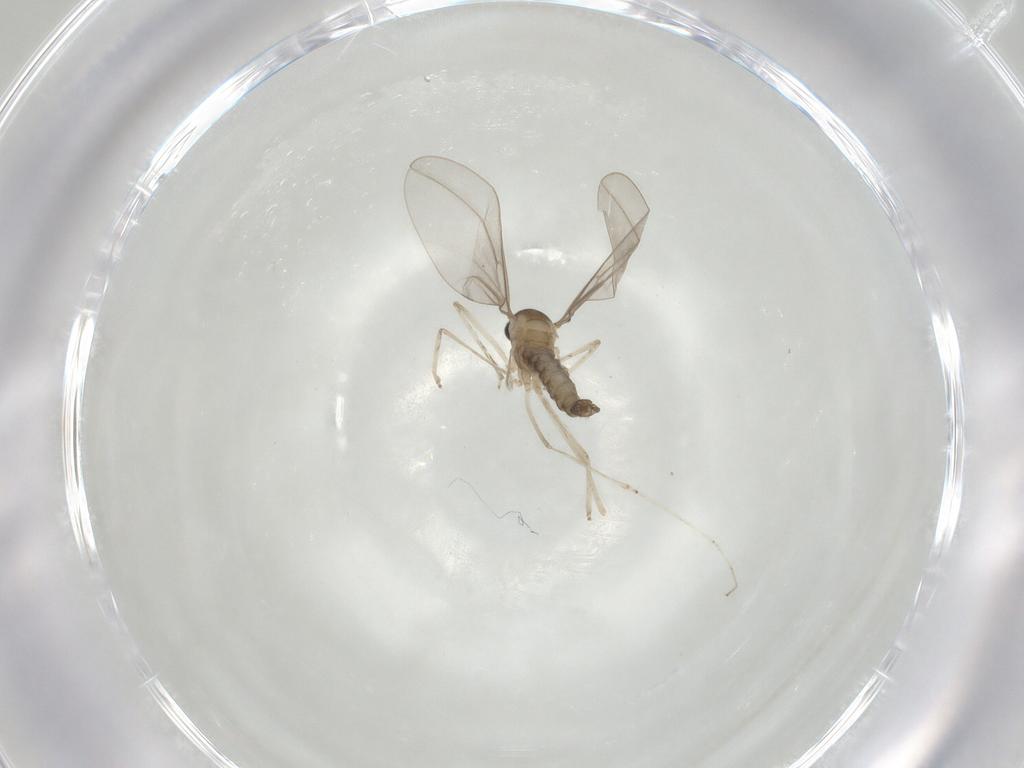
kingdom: Animalia
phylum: Arthropoda
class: Insecta
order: Diptera
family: Cecidomyiidae
